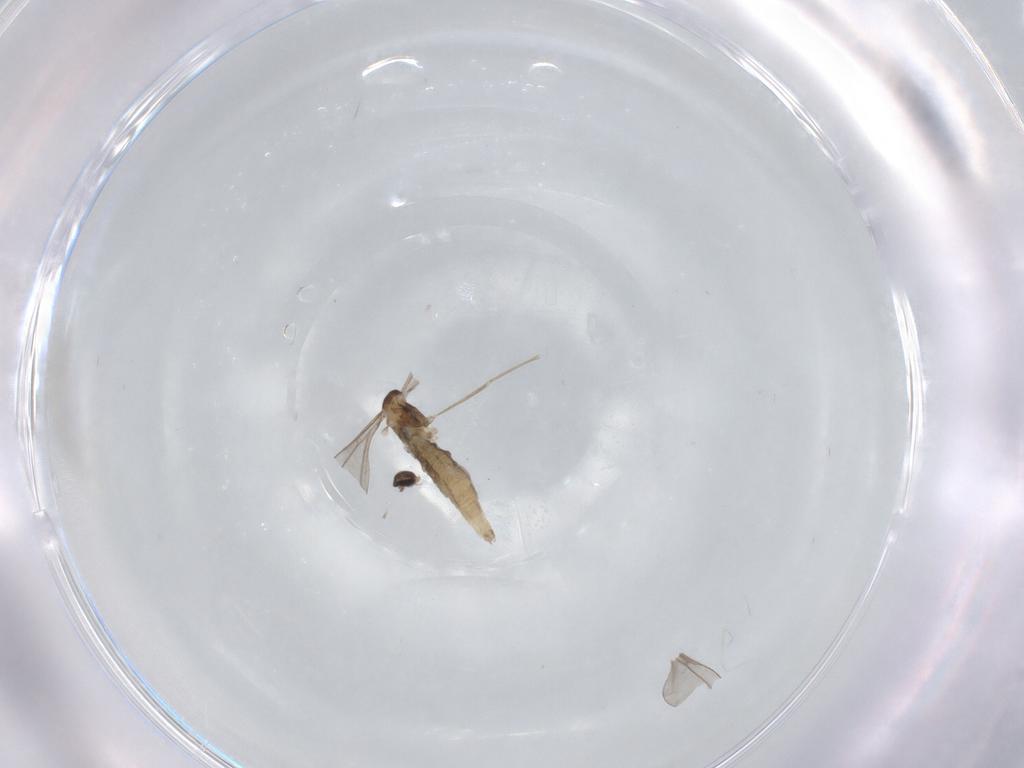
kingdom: Animalia
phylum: Arthropoda
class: Insecta
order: Diptera
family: Cecidomyiidae
